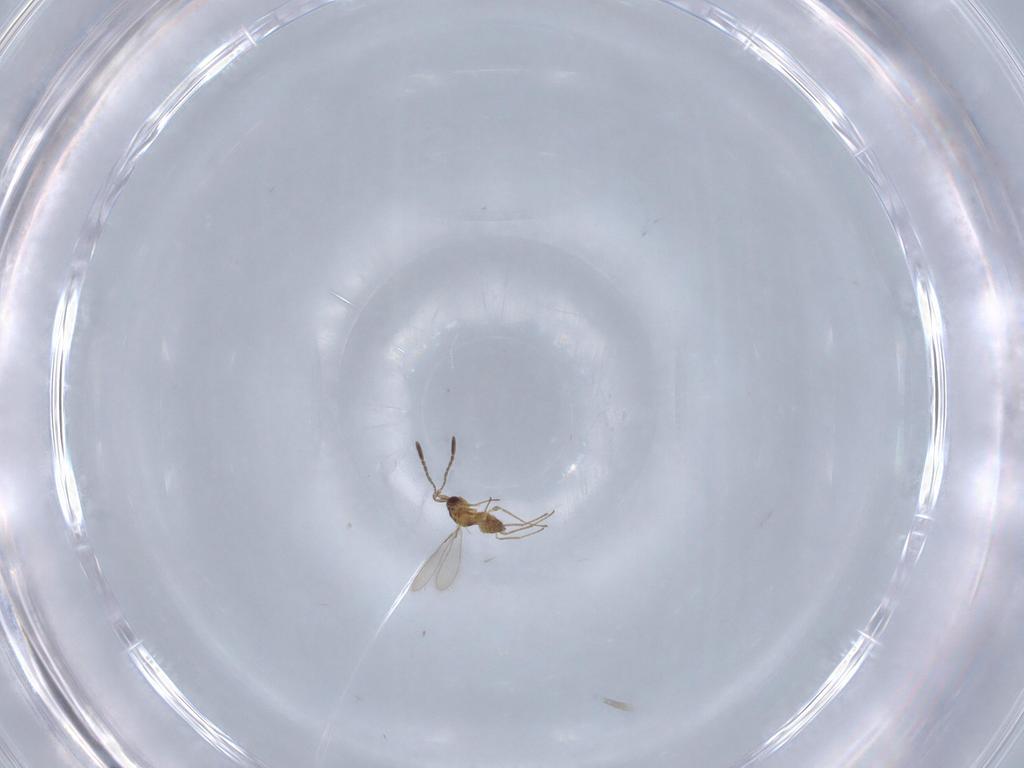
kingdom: Animalia
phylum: Arthropoda
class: Insecta
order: Hymenoptera
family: Mymaridae
